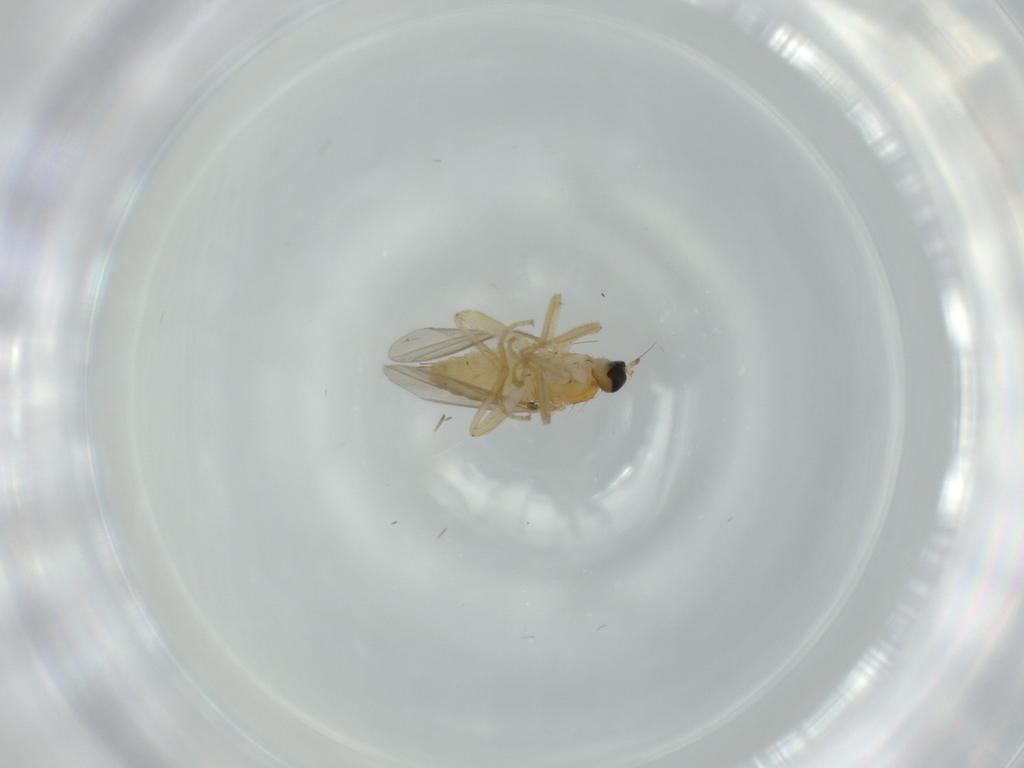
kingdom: Animalia
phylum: Arthropoda
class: Insecta
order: Diptera
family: Hybotidae
